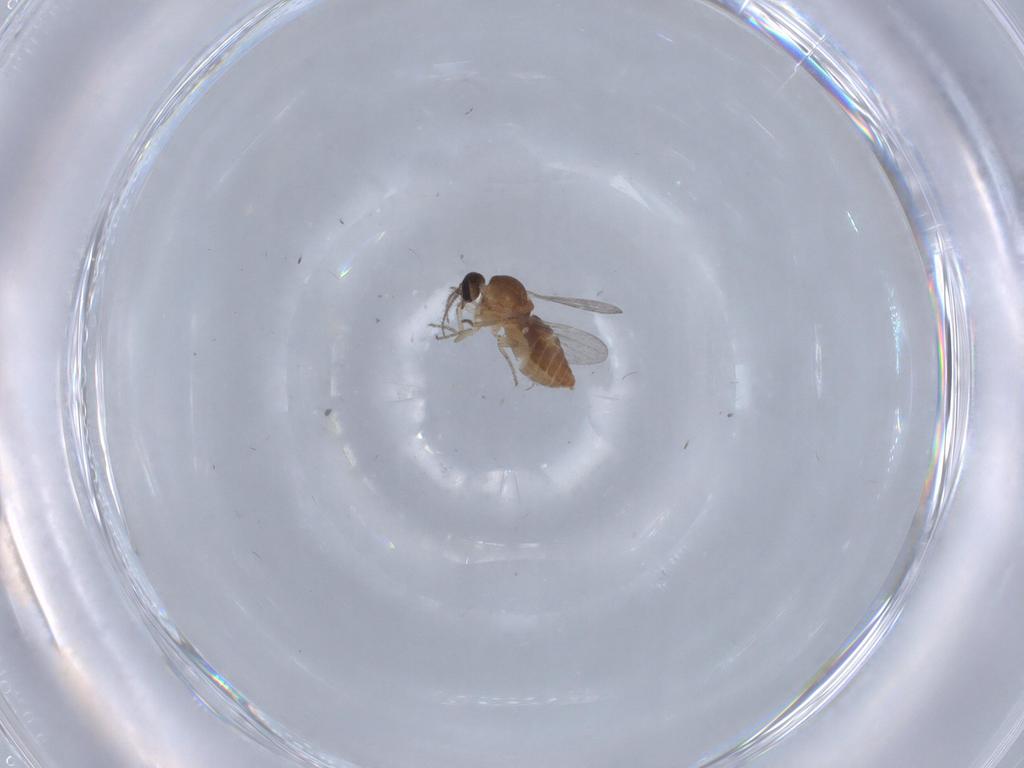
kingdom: Animalia
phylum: Arthropoda
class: Insecta
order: Diptera
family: Ceratopogonidae
